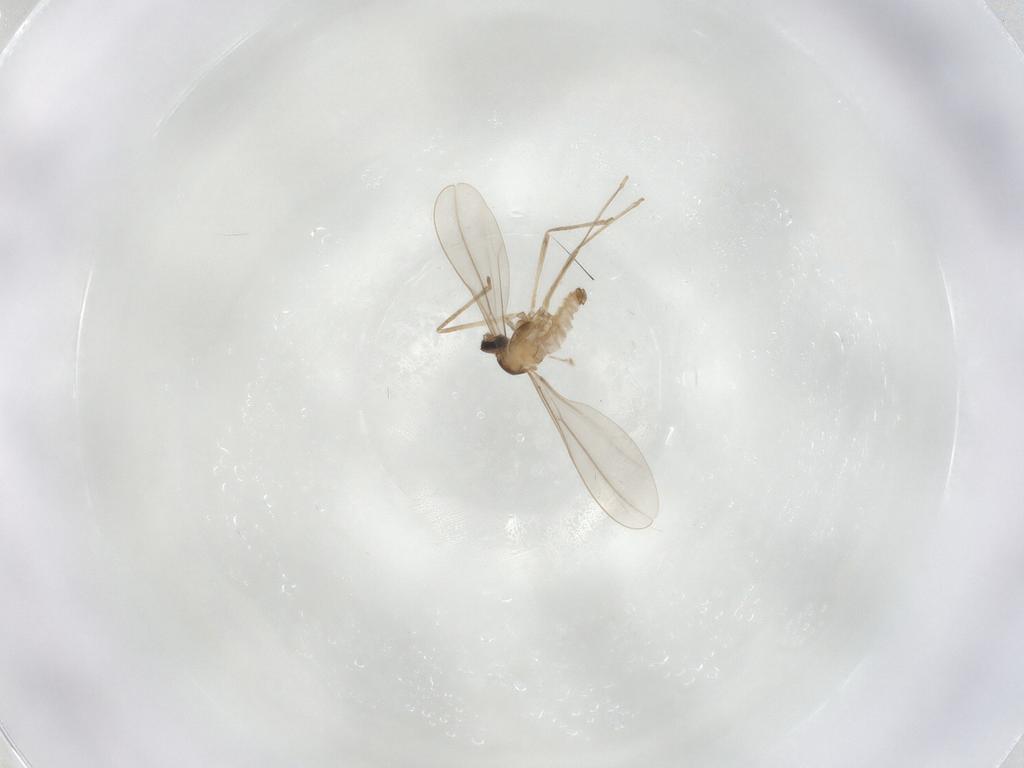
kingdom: Animalia
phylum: Arthropoda
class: Insecta
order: Diptera
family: Cecidomyiidae
